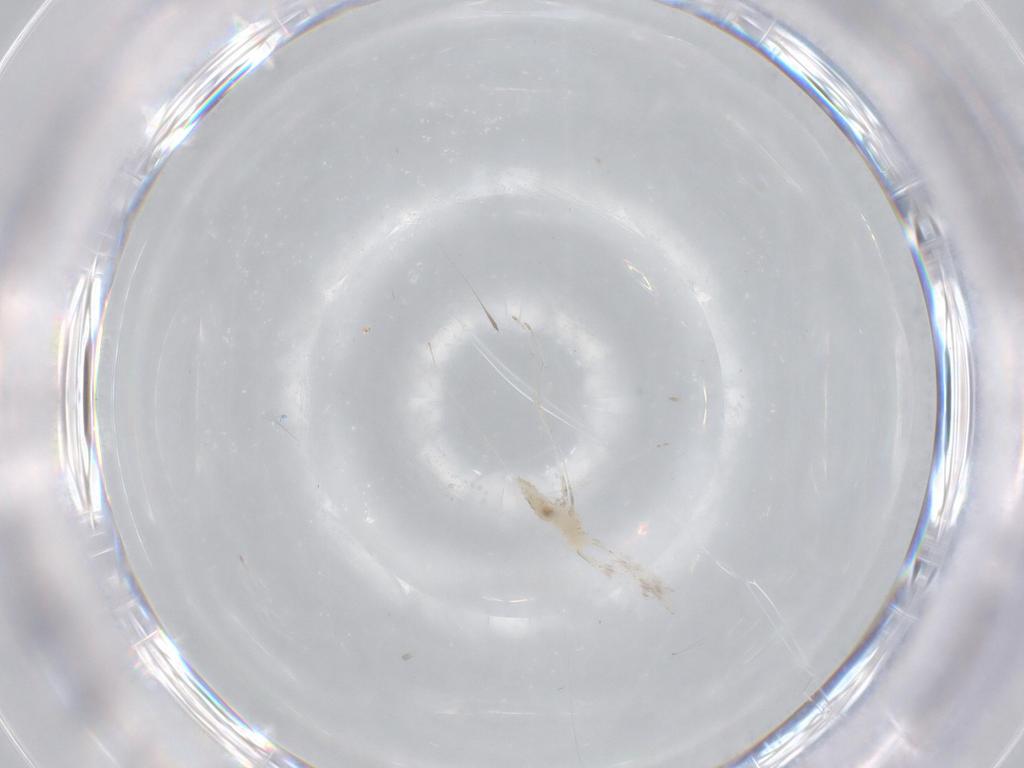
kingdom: Animalia
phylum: Arthropoda
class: Insecta
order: Diptera
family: Cecidomyiidae
